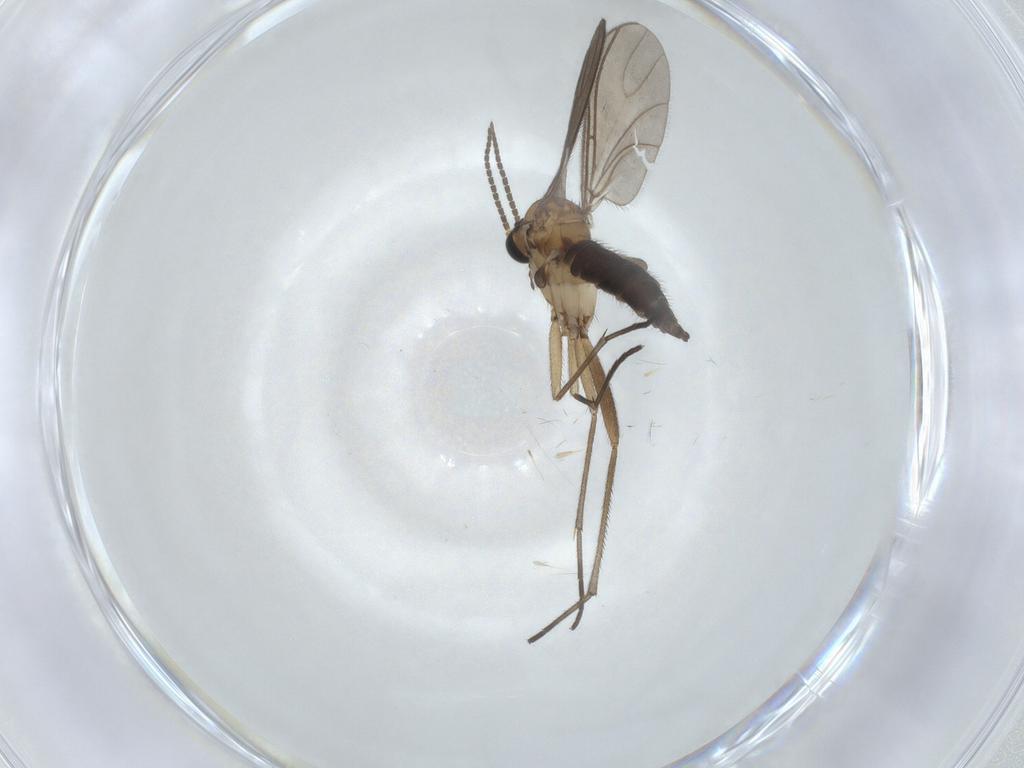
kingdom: Animalia
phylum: Arthropoda
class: Insecta
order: Diptera
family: Sciaridae
